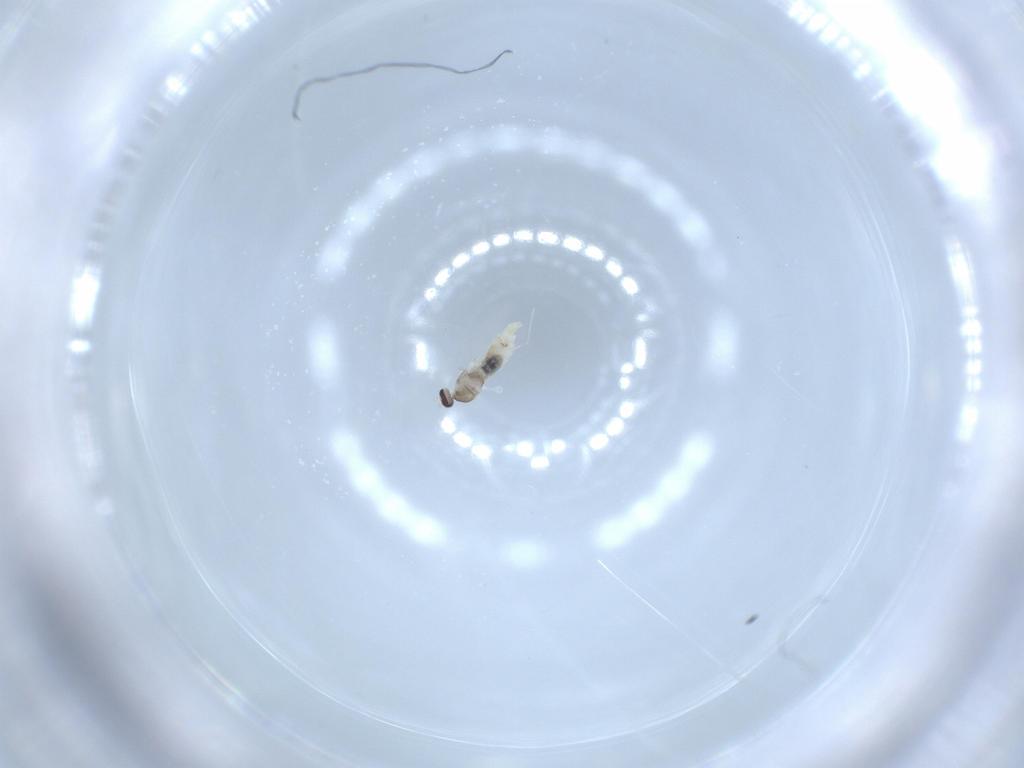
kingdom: Animalia
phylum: Arthropoda
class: Insecta
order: Diptera
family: Cecidomyiidae
